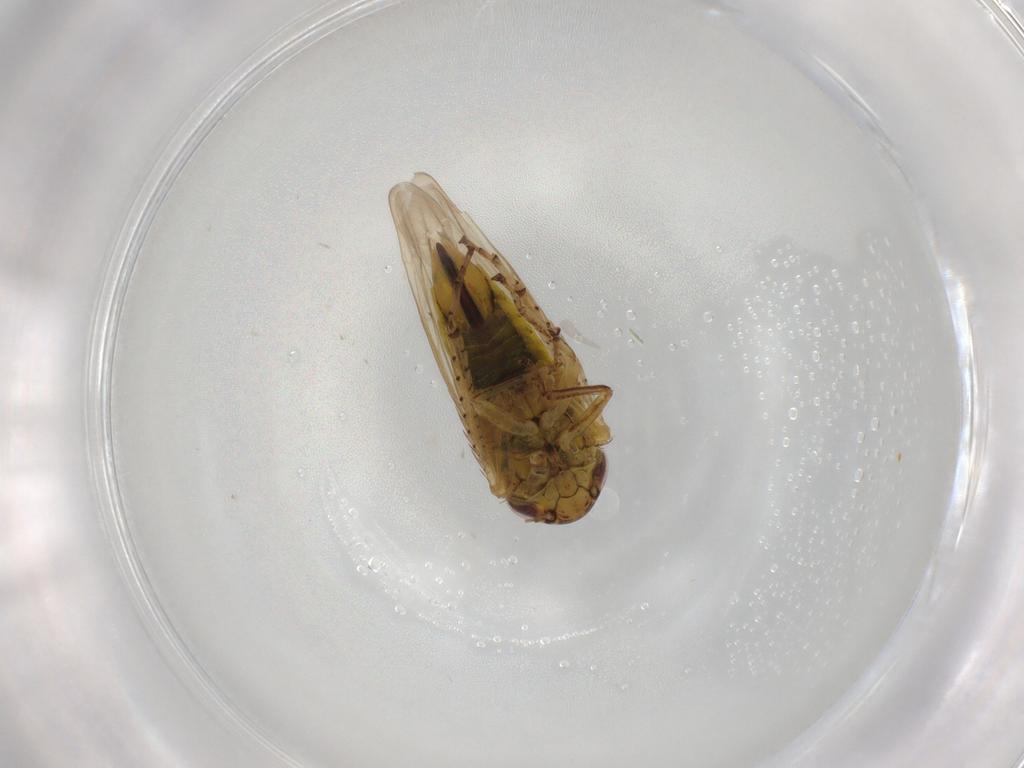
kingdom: Animalia
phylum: Arthropoda
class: Insecta
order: Hemiptera
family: Cicadellidae
